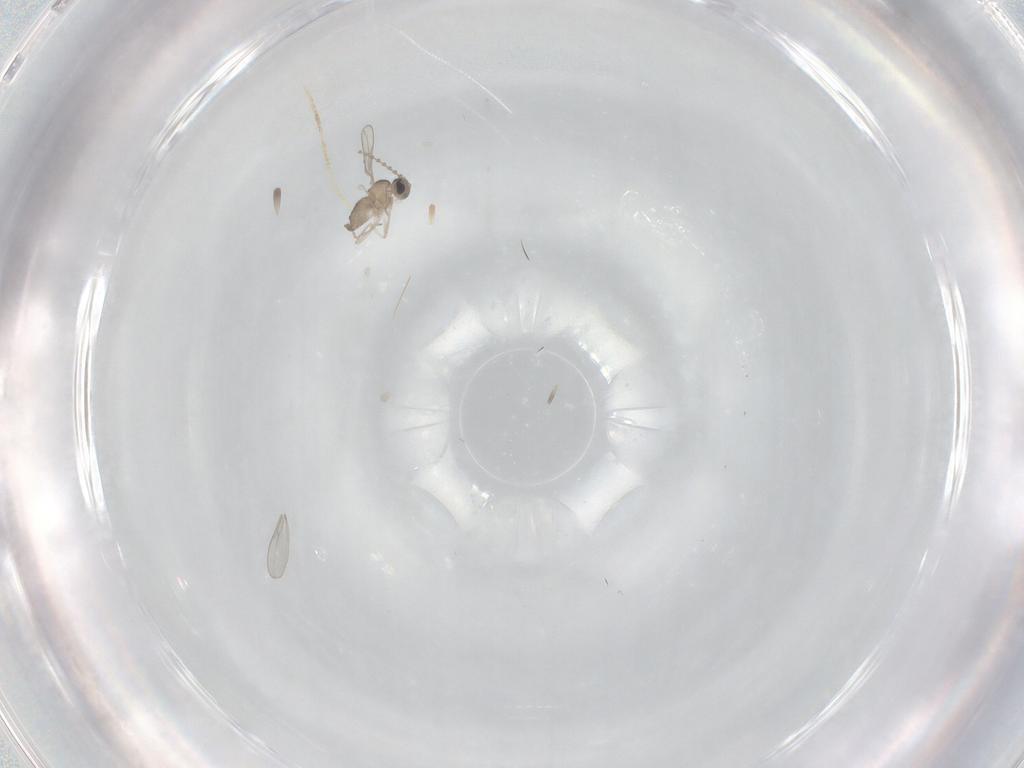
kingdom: Animalia
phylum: Arthropoda
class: Insecta
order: Diptera
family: Cecidomyiidae
